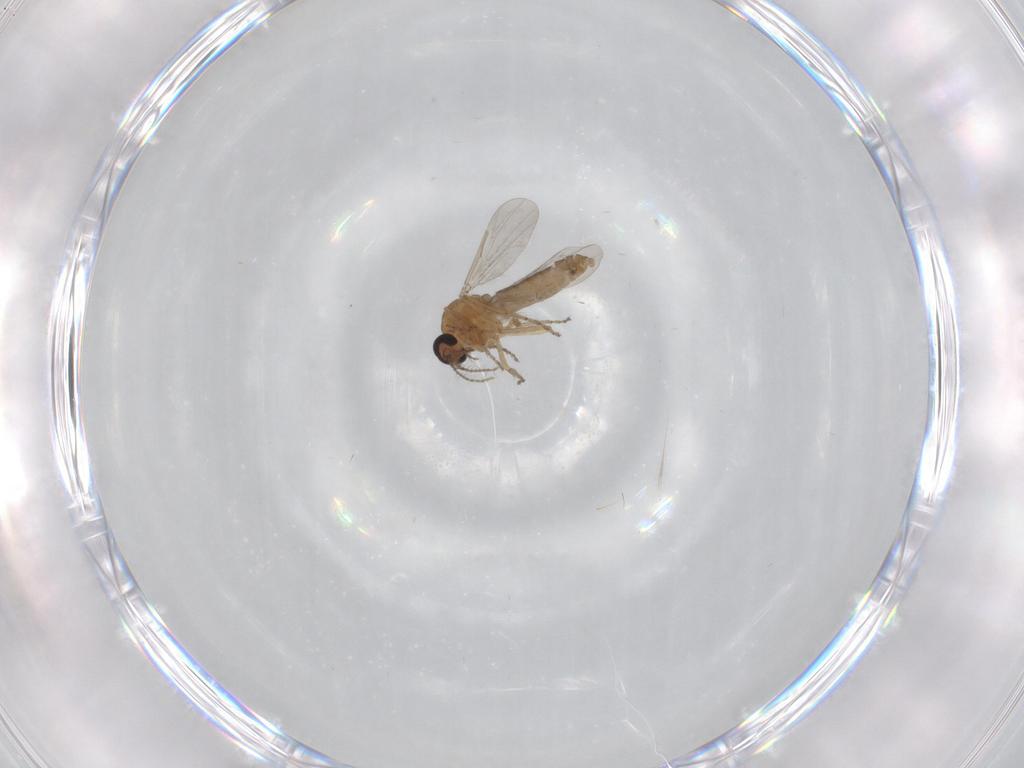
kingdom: Animalia
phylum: Arthropoda
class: Insecta
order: Diptera
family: Ceratopogonidae
